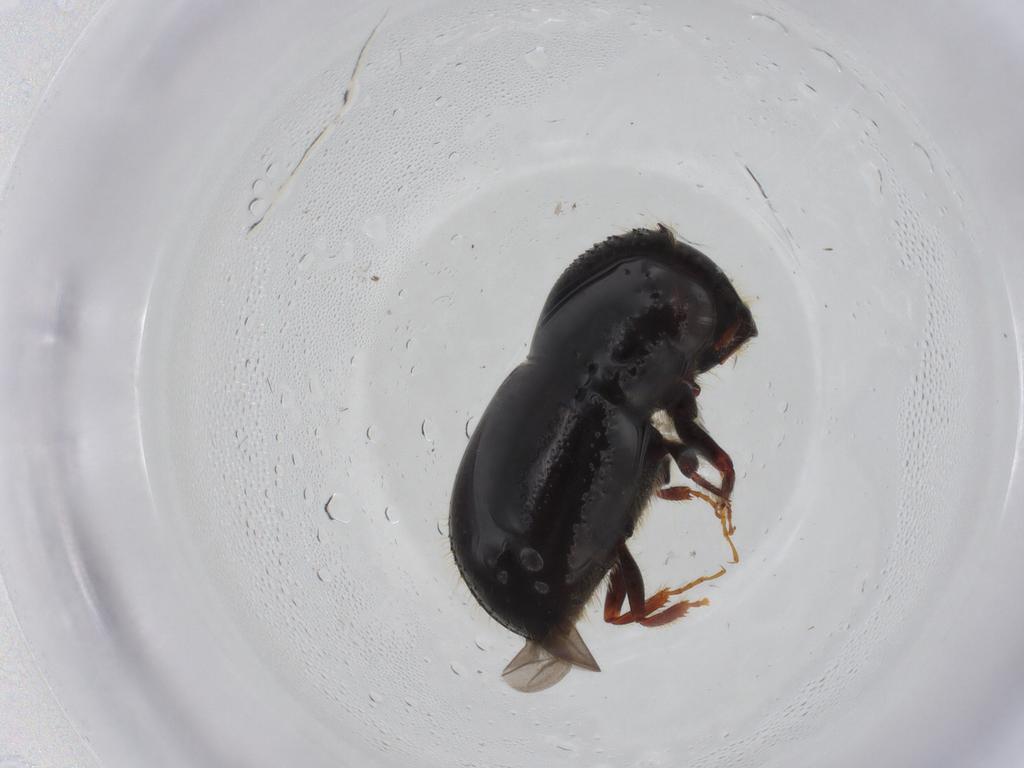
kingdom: Animalia
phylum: Arthropoda
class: Insecta
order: Coleoptera
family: Curculionidae
